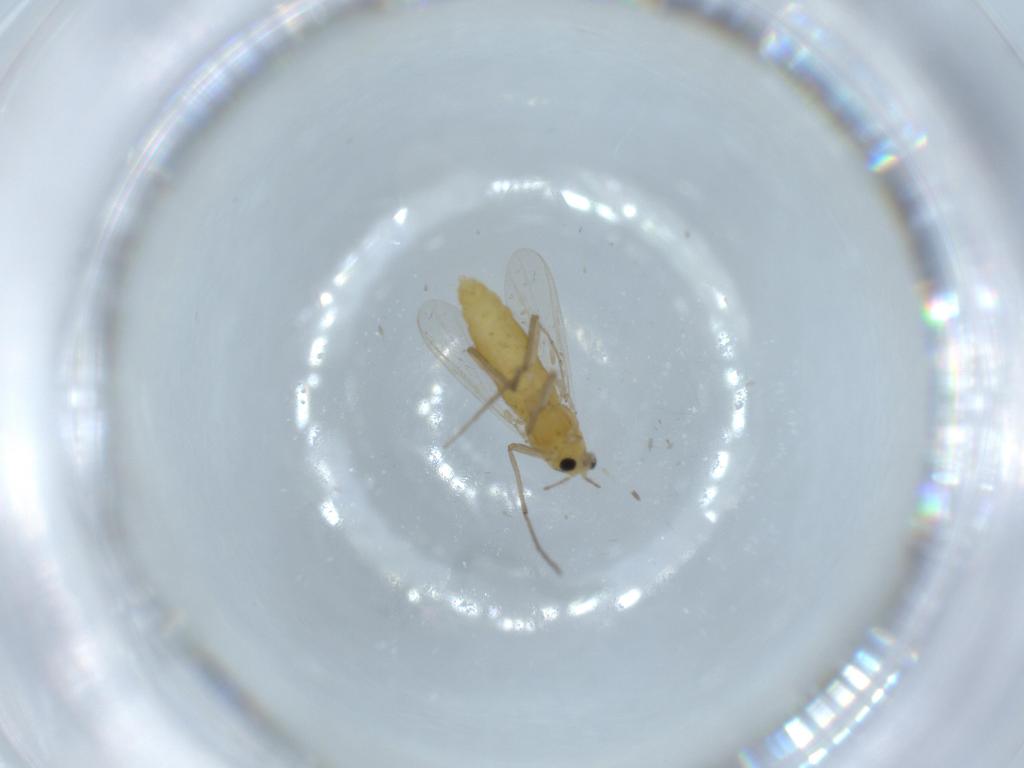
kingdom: Animalia
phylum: Arthropoda
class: Insecta
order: Diptera
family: Chironomidae
